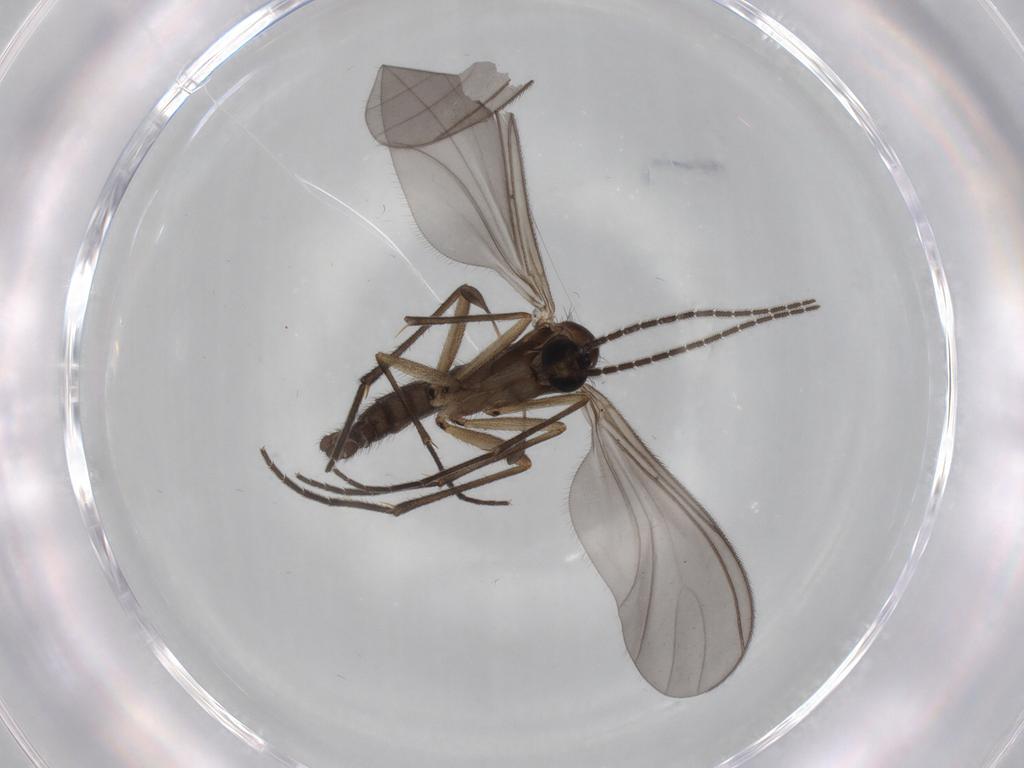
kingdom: Animalia
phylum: Arthropoda
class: Insecta
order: Diptera
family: Sciaridae
